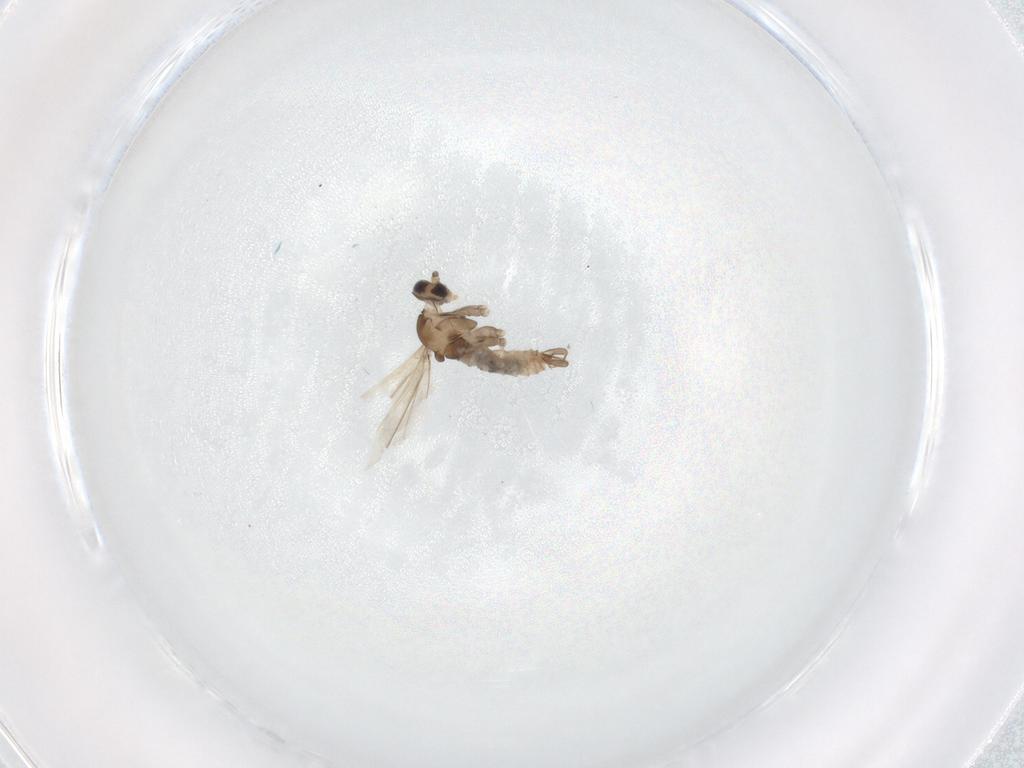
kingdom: Animalia
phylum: Arthropoda
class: Insecta
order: Diptera
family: Cecidomyiidae
